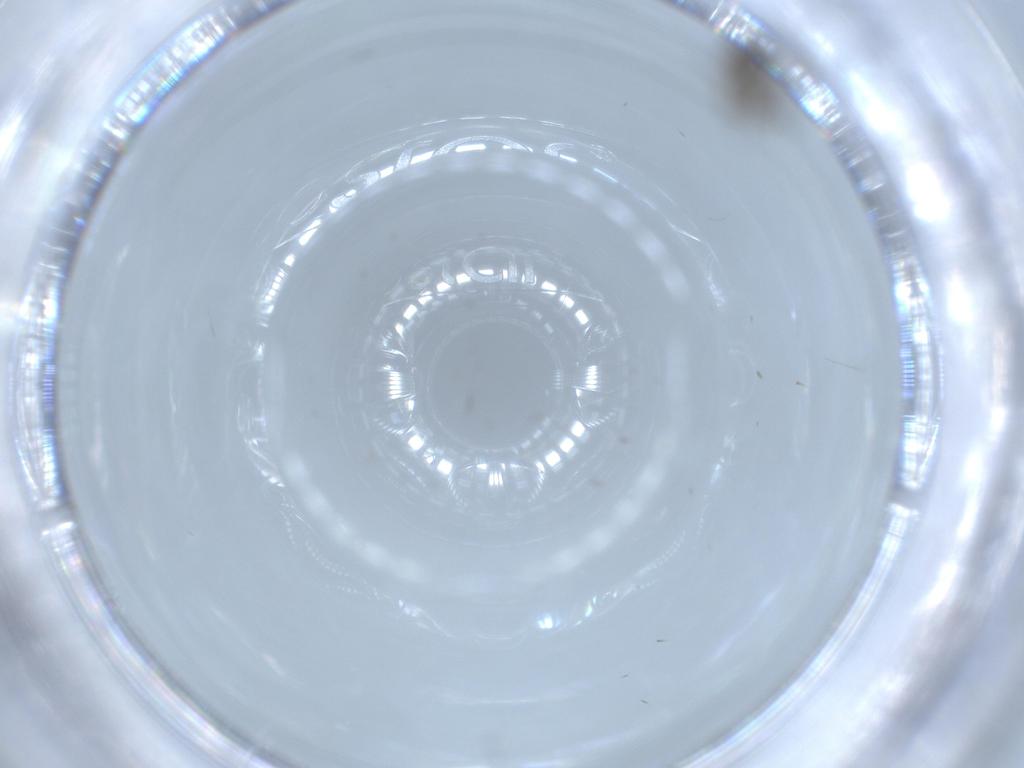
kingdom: Animalia
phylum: Arthropoda
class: Insecta
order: Diptera
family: Sciaridae
